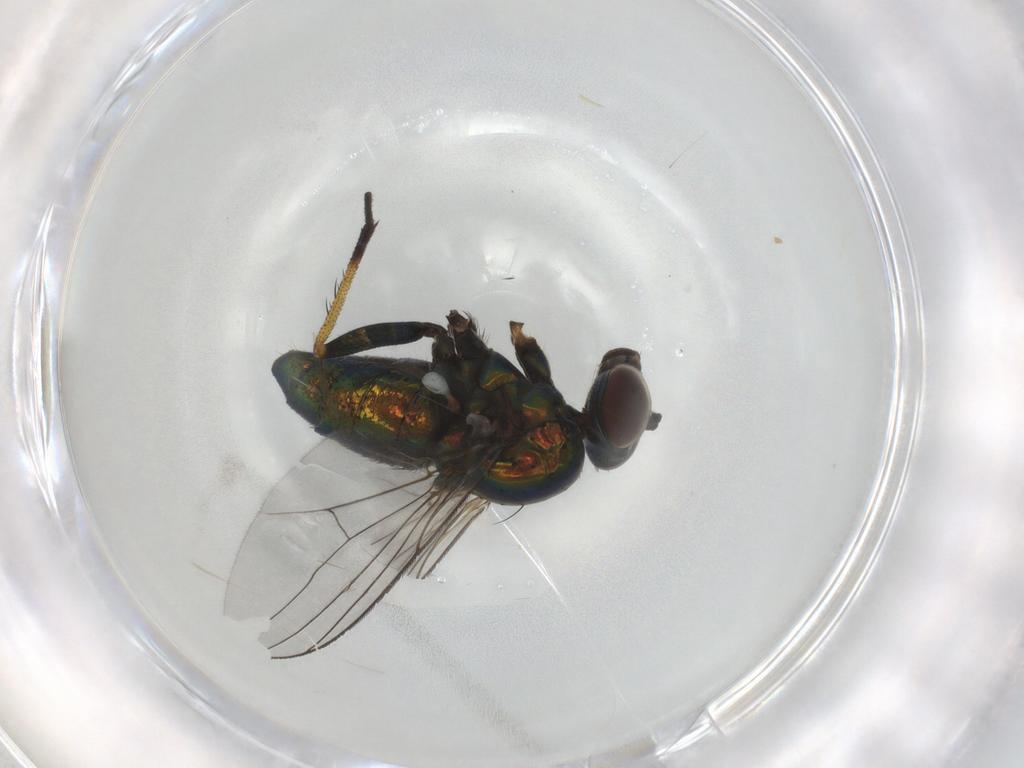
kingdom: Animalia
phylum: Arthropoda
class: Insecta
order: Diptera
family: Dolichopodidae
